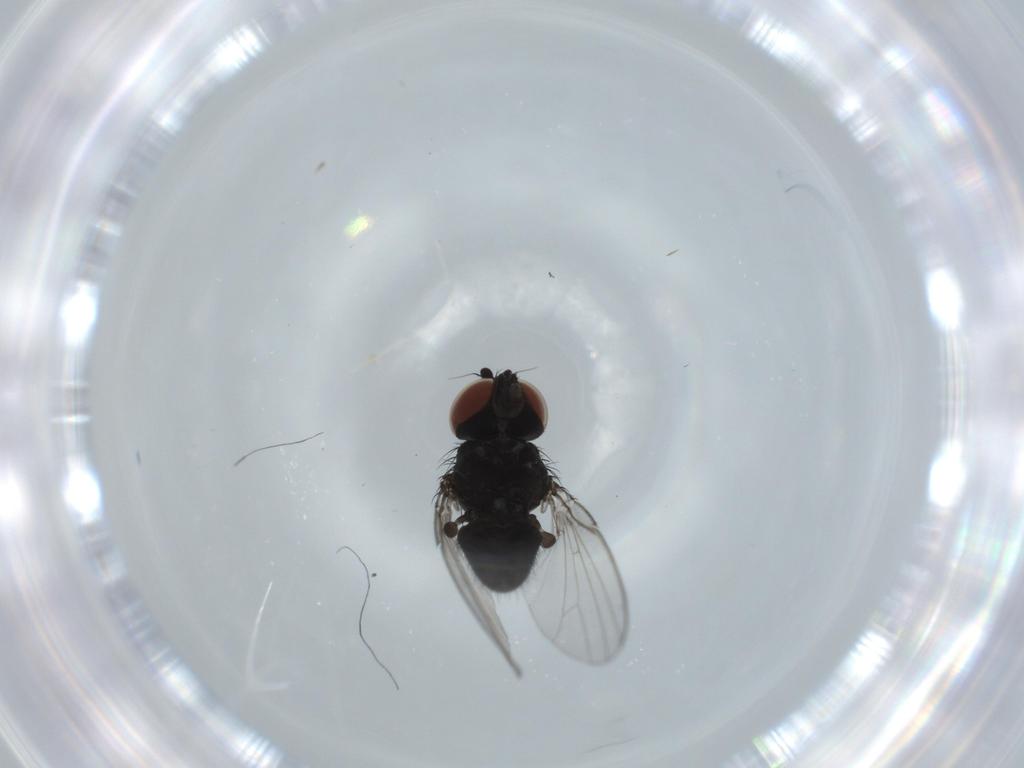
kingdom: Animalia
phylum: Arthropoda
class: Insecta
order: Diptera
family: Milichiidae
